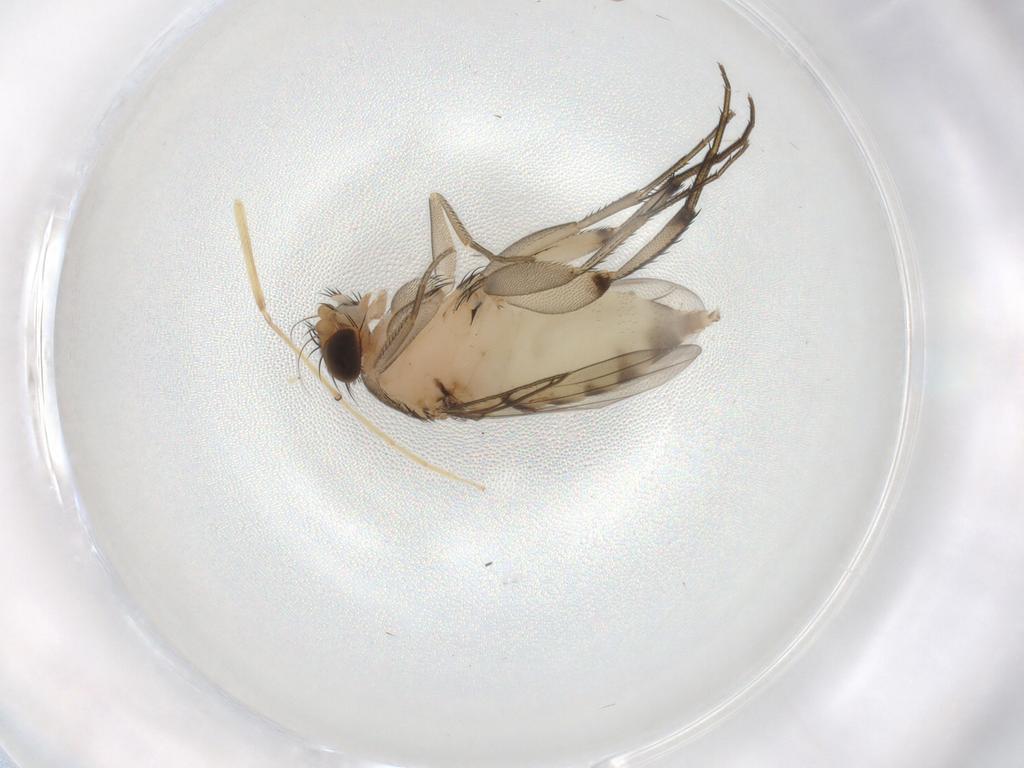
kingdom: Animalia
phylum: Arthropoda
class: Insecta
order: Diptera
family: Phoridae
